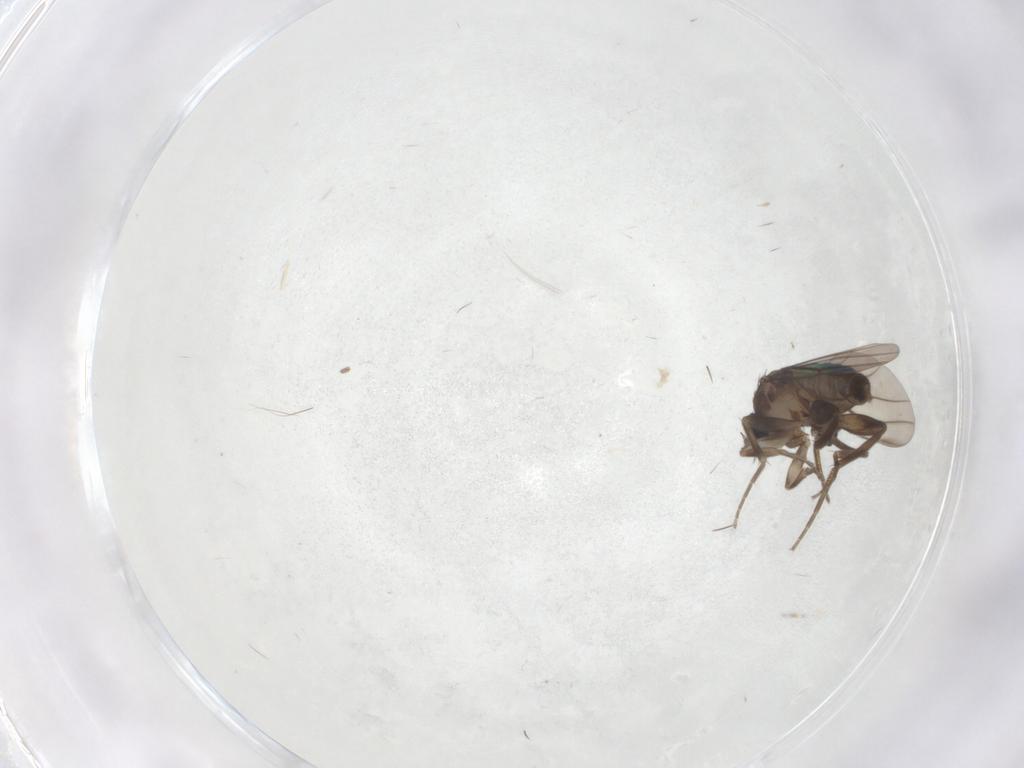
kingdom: Animalia
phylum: Arthropoda
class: Insecta
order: Diptera
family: Phoridae
